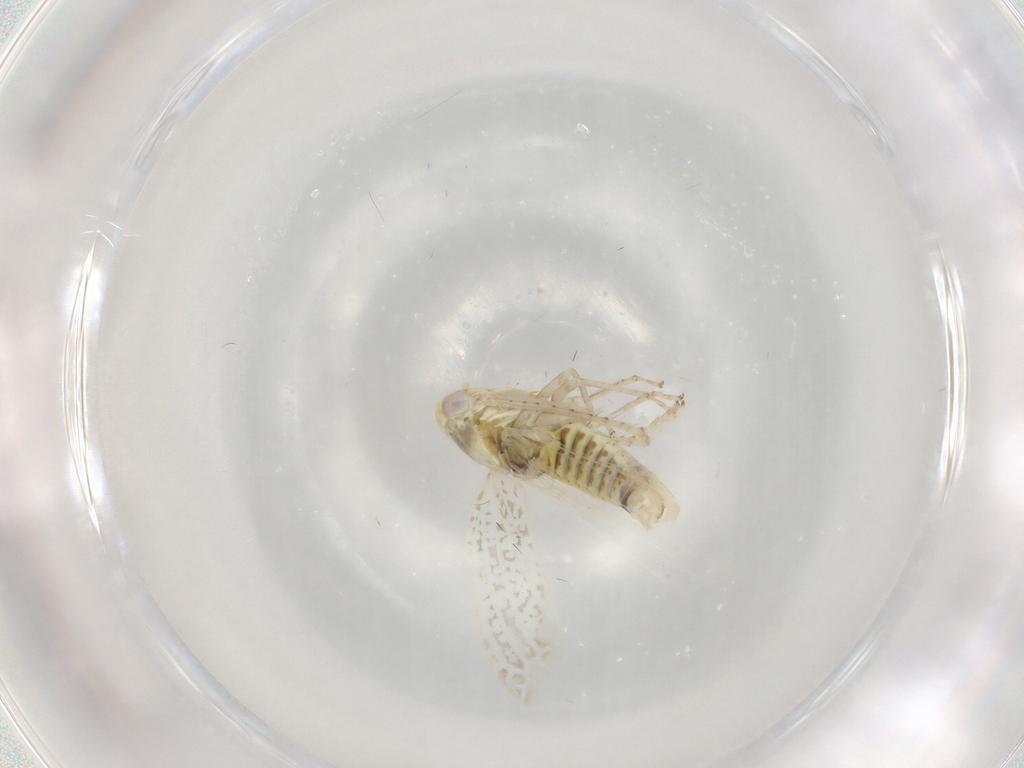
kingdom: Animalia
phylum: Arthropoda
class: Insecta
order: Hemiptera
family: Cicadellidae
